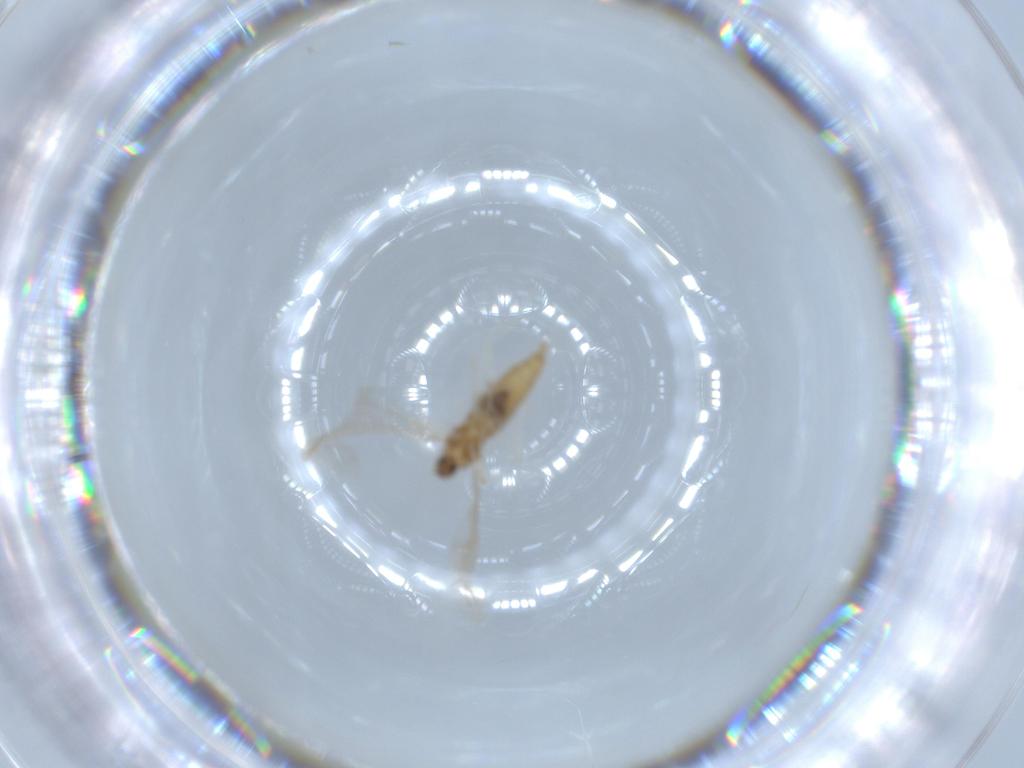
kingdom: Animalia
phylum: Arthropoda
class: Insecta
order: Diptera
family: Cecidomyiidae
